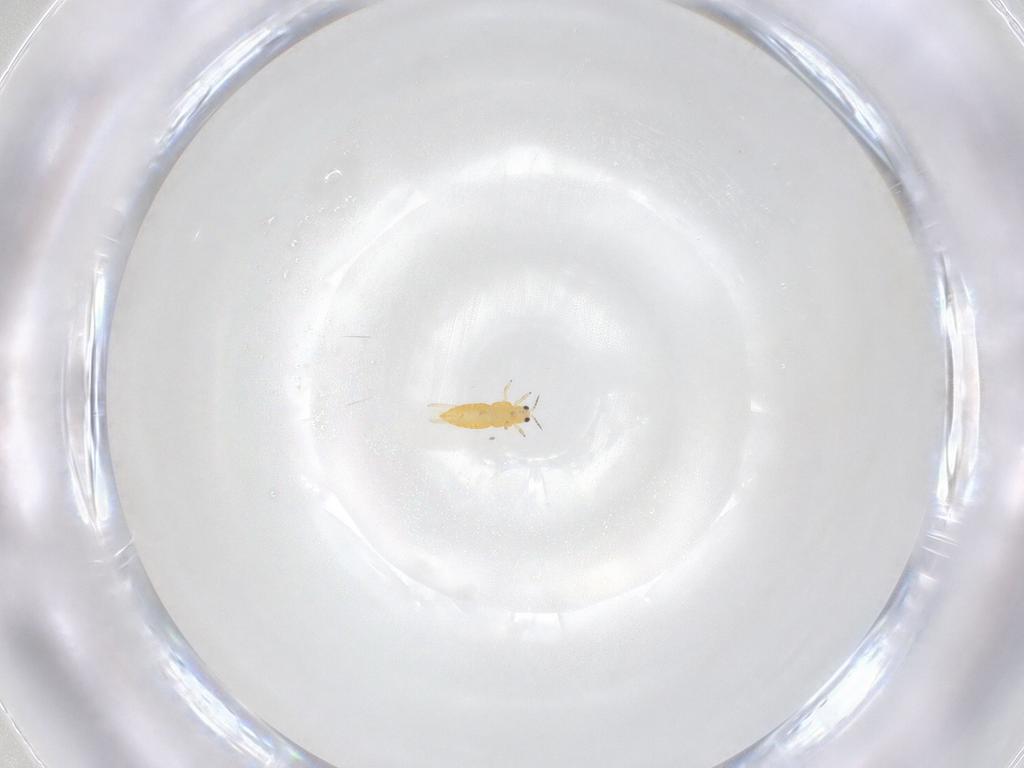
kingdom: Animalia
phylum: Arthropoda
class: Insecta
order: Thysanoptera
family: Thripidae
